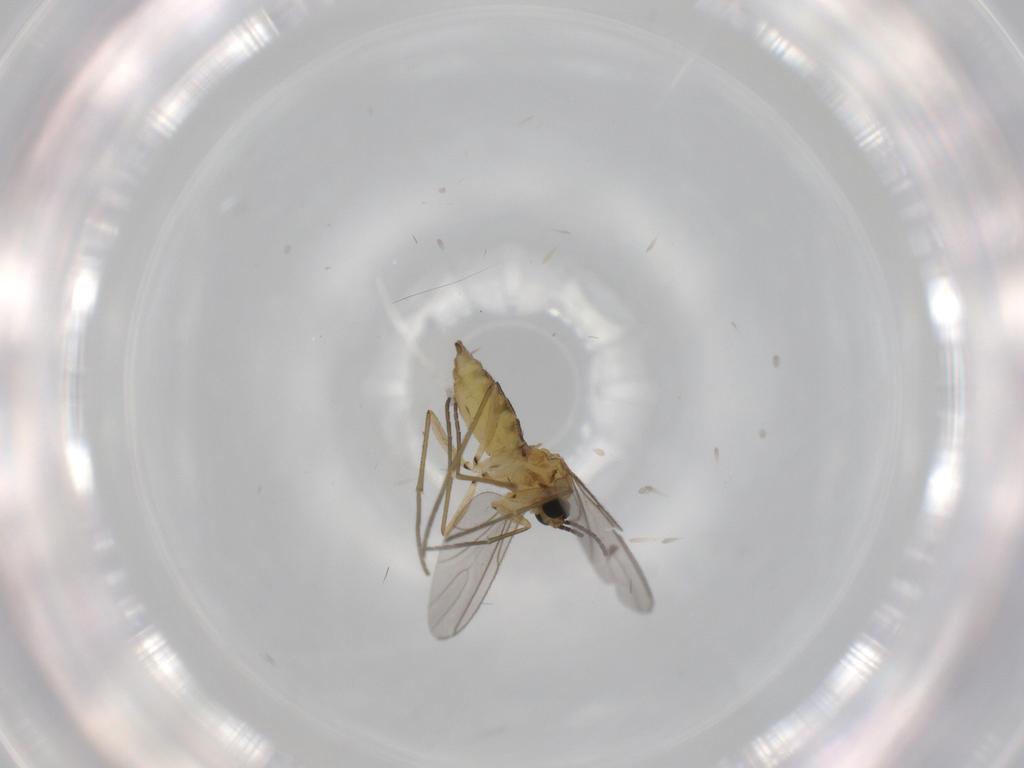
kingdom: Animalia
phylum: Arthropoda
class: Insecta
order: Diptera
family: Sciaridae
